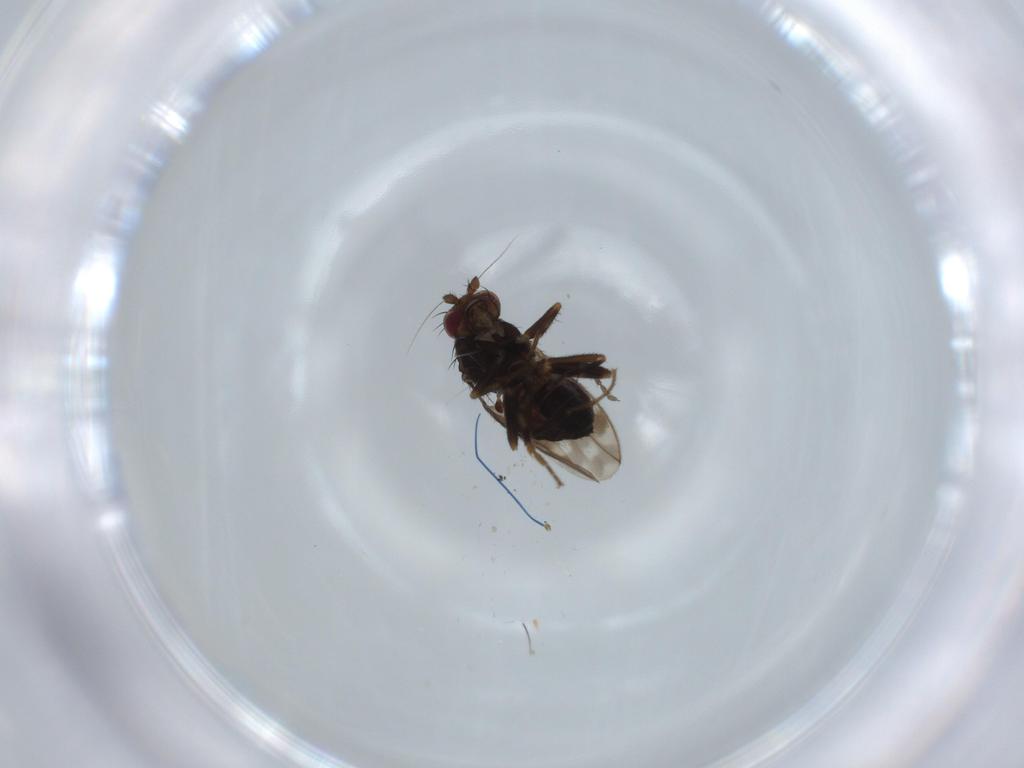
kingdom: Animalia
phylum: Arthropoda
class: Insecta
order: Diptera
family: Sphaeroceridae
